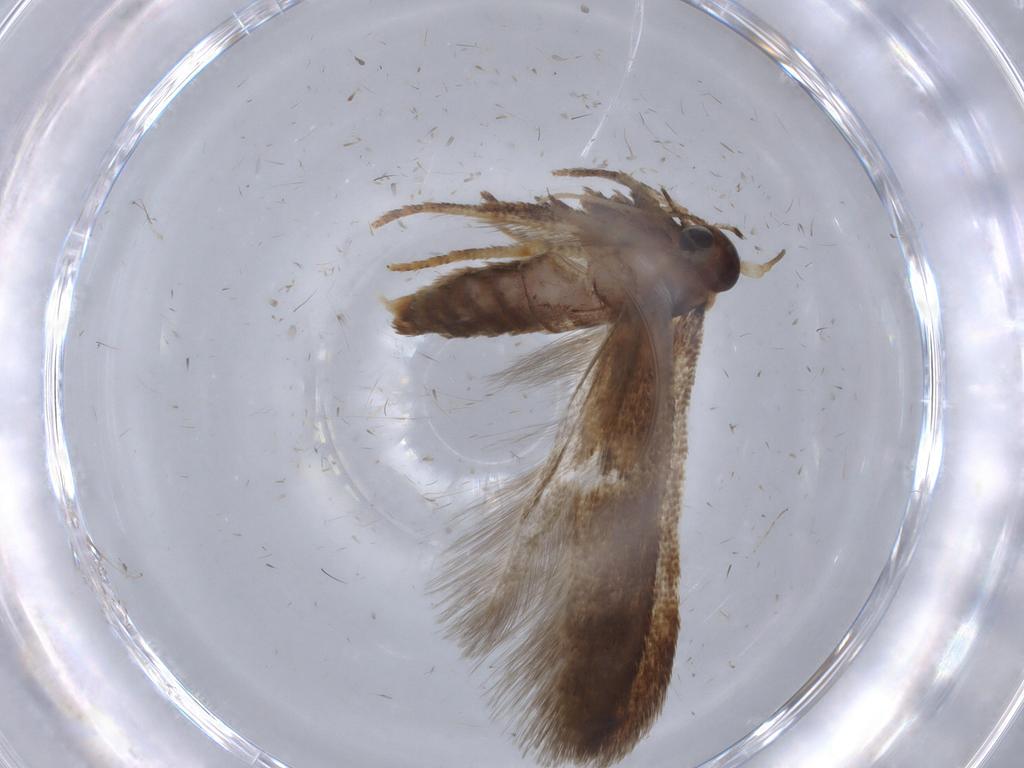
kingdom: Animalia
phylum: Arthropoda
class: Insecta
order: Lepidoptera
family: Blastobasidae
